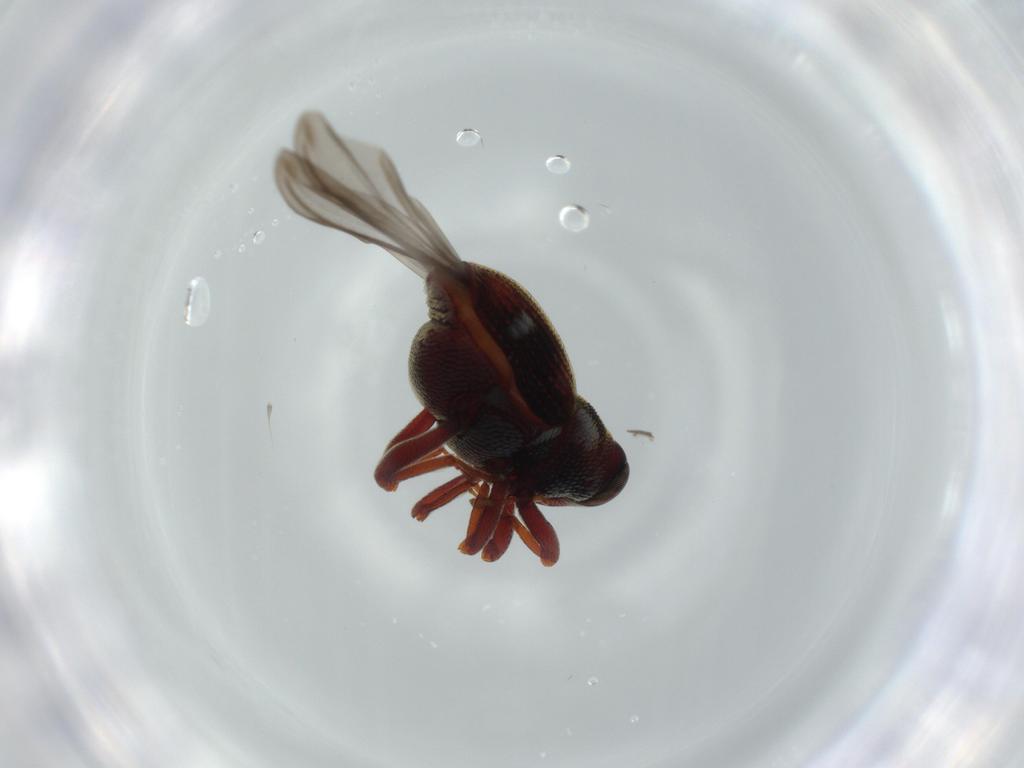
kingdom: Animalia
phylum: Arthropoda
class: Insecta
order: Coleoptera
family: Curculionidae
